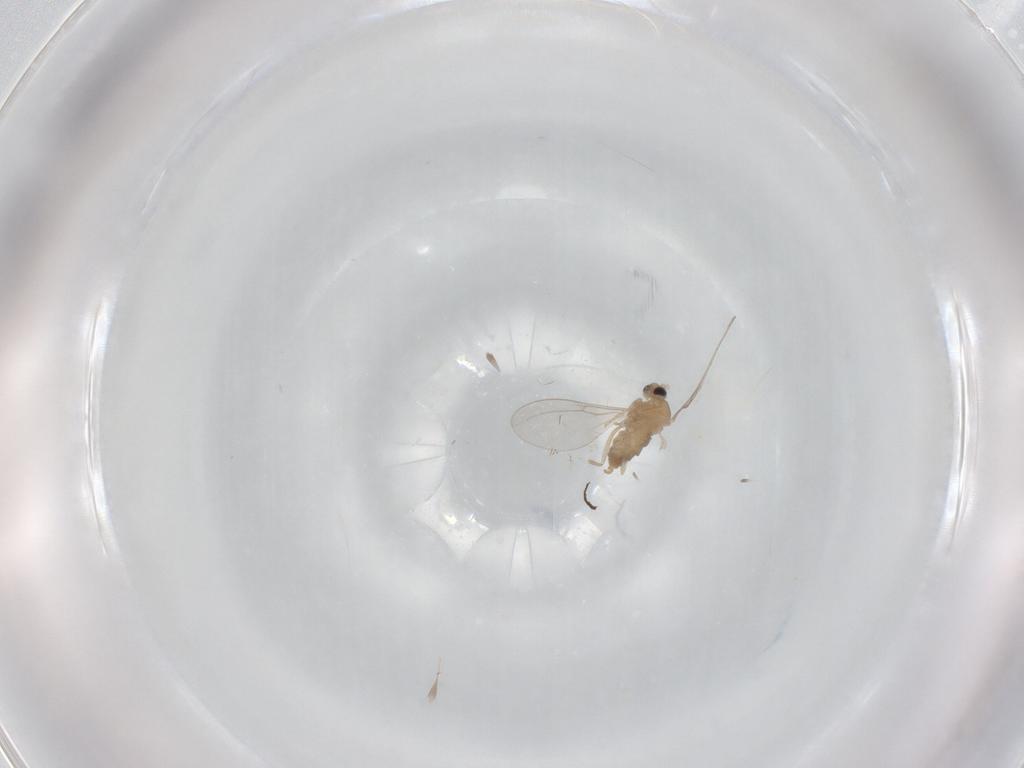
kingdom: Animalia
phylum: Arthropoda
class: Insecta
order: Diptera
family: Cecidomyiidae
